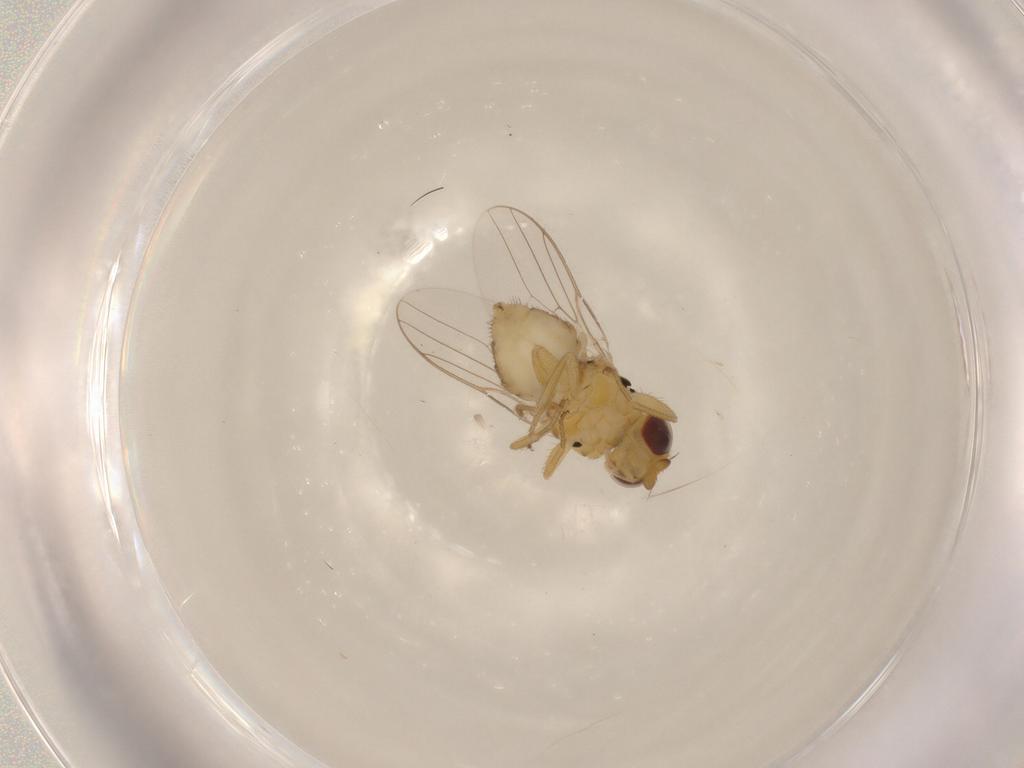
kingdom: Animalia
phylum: Arthropoda
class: Insecta
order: Diptera
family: Chloropidae
